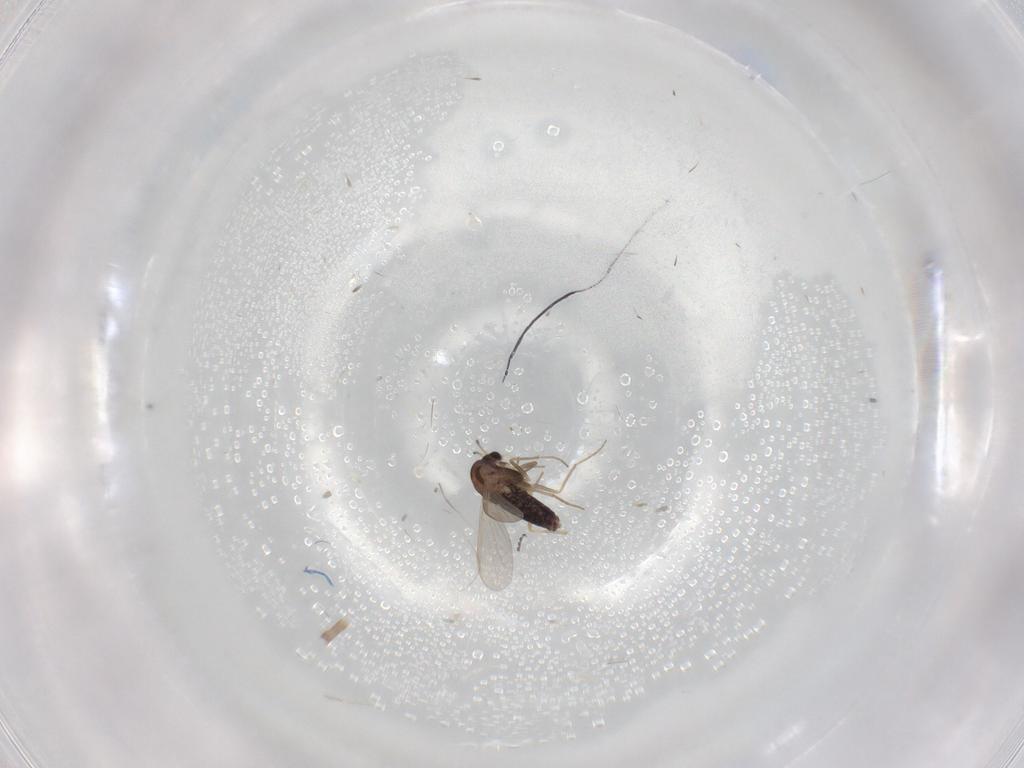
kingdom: Animalia
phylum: Arthropoda
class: Insecta
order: Diptera
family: Chironomidae
